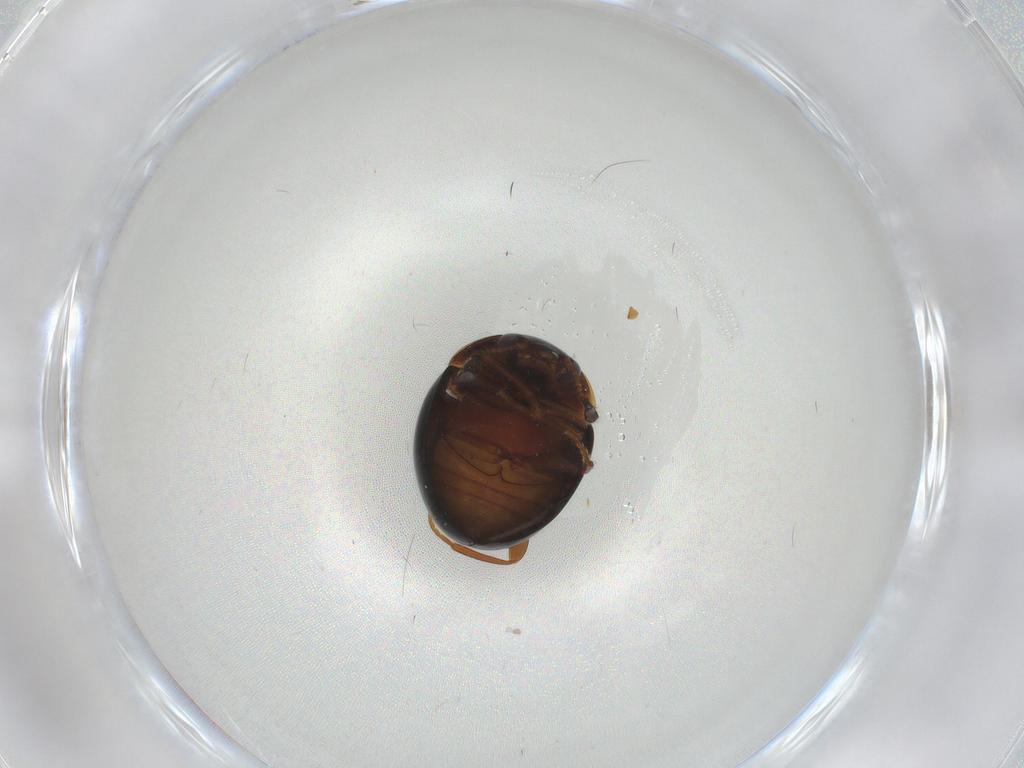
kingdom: Animalia
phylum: Arthropoda
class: Insecta
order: Coleoptera
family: Leiodidae
